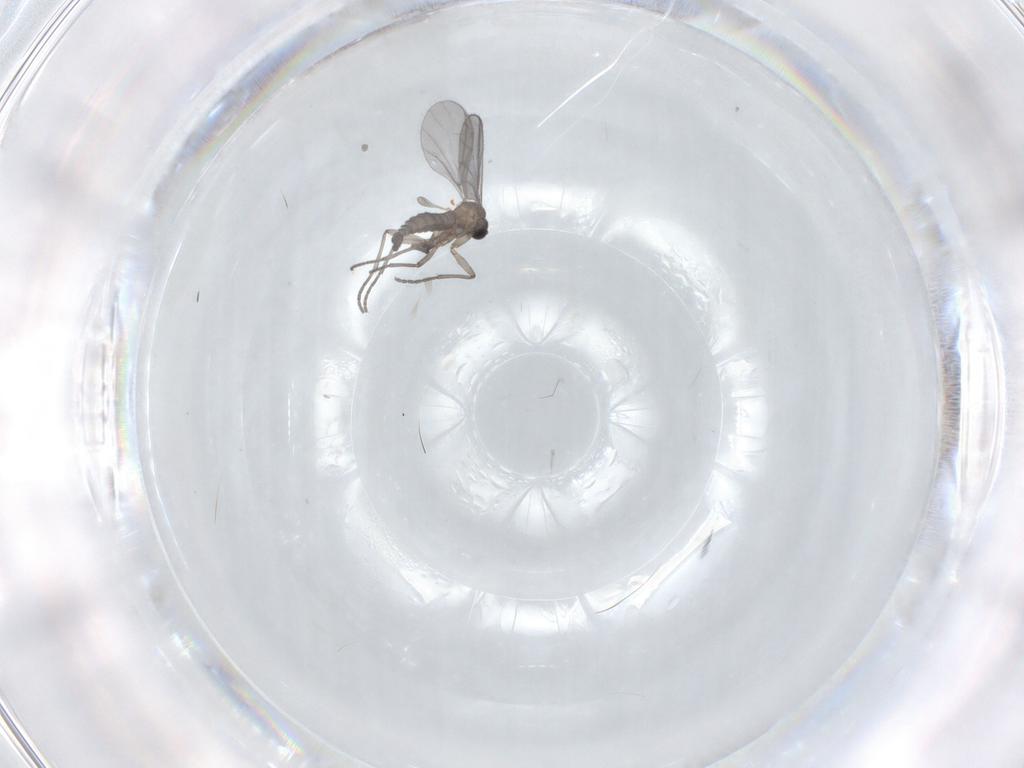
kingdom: Animalia
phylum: Arthropoda
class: Insecta
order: Diptera
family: Sciaridae
